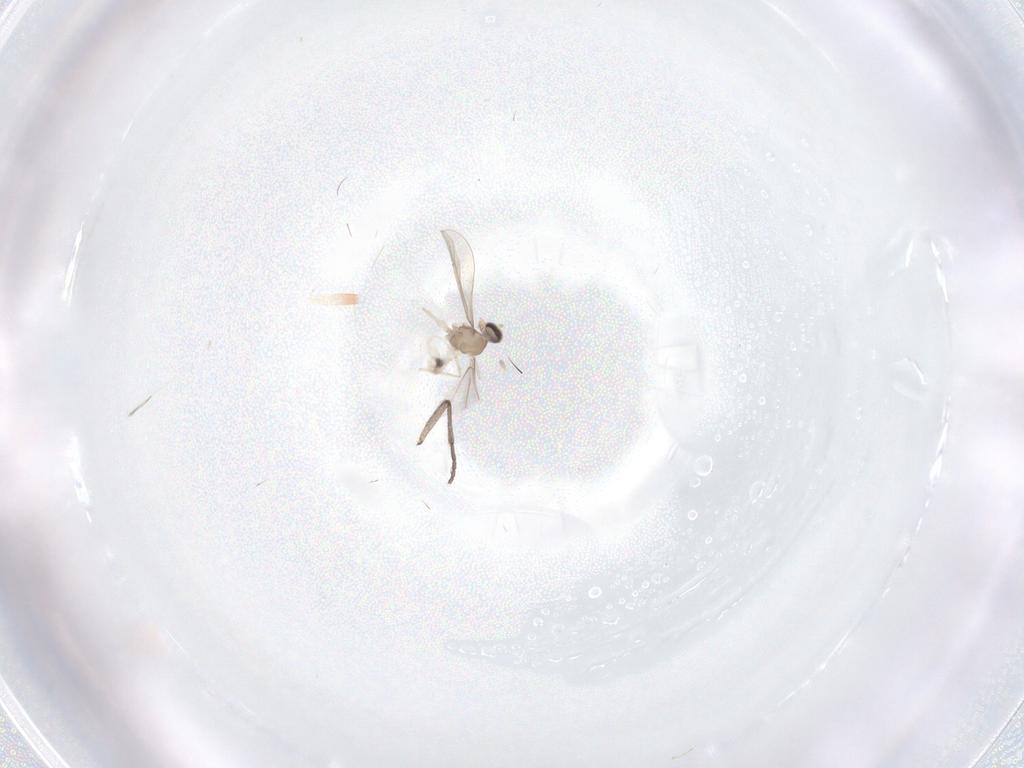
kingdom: Animalia
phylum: Arthropoda
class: Insecta
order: Diptera
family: Cecidomyiidae
